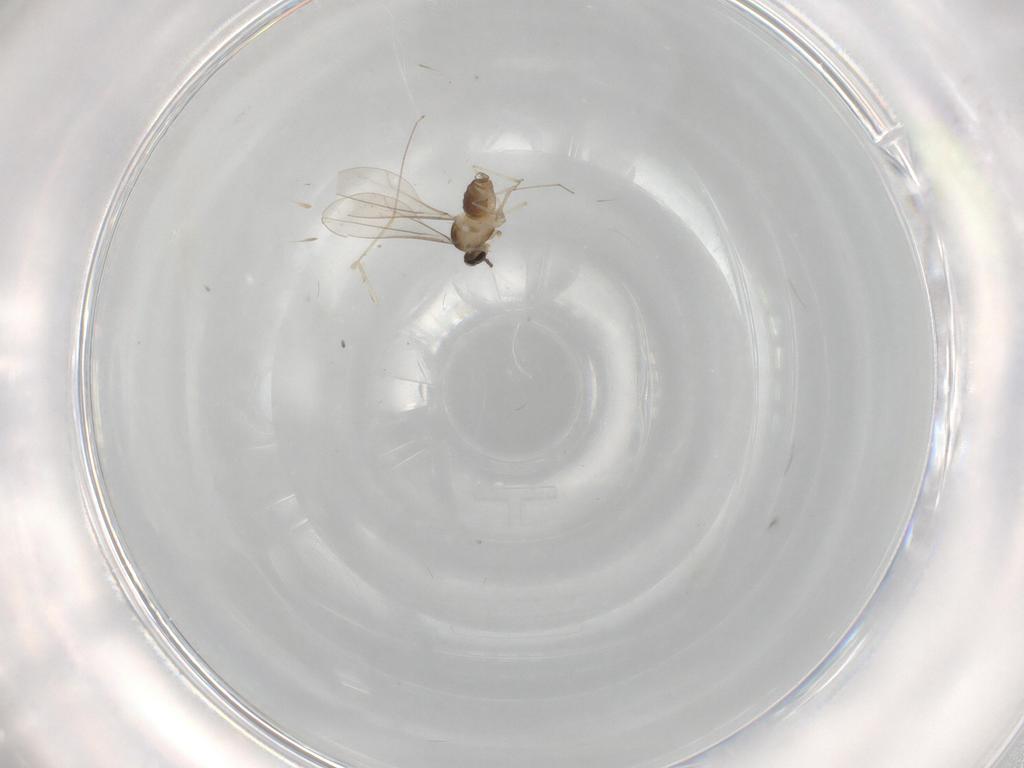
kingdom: Animalia
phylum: Arthropoda
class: Insecta
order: Diptera
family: Cecidomyiidae
